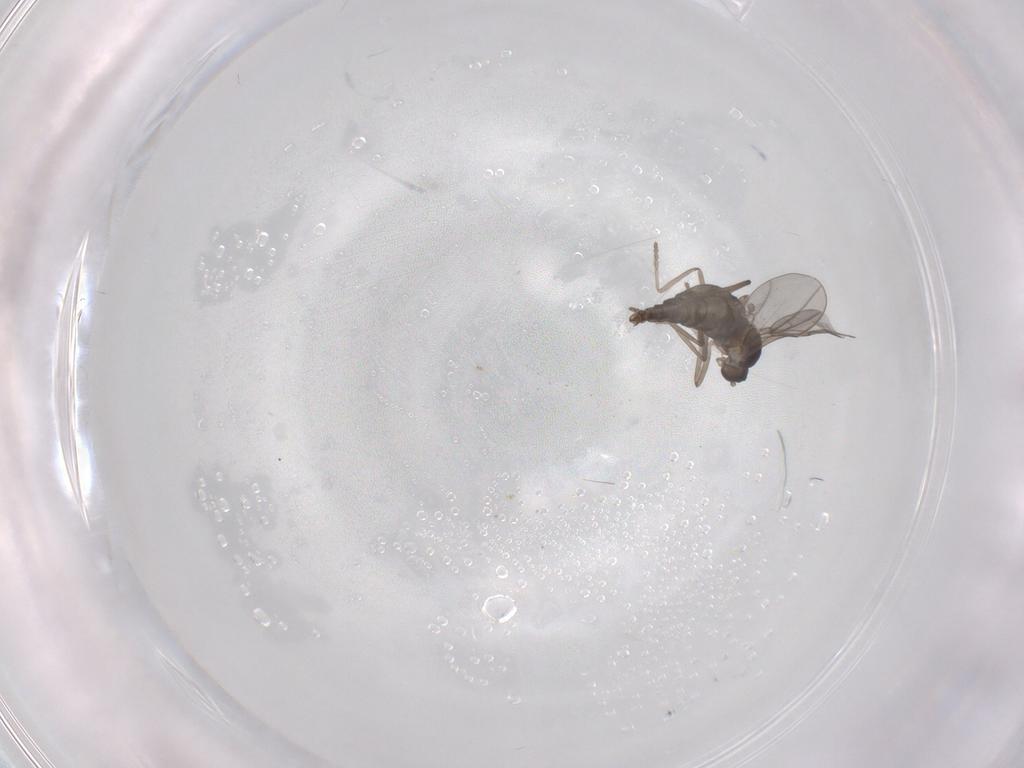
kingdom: Animalia
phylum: Arthropoda
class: Insecta
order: Diptera
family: Cecidomyiidae
